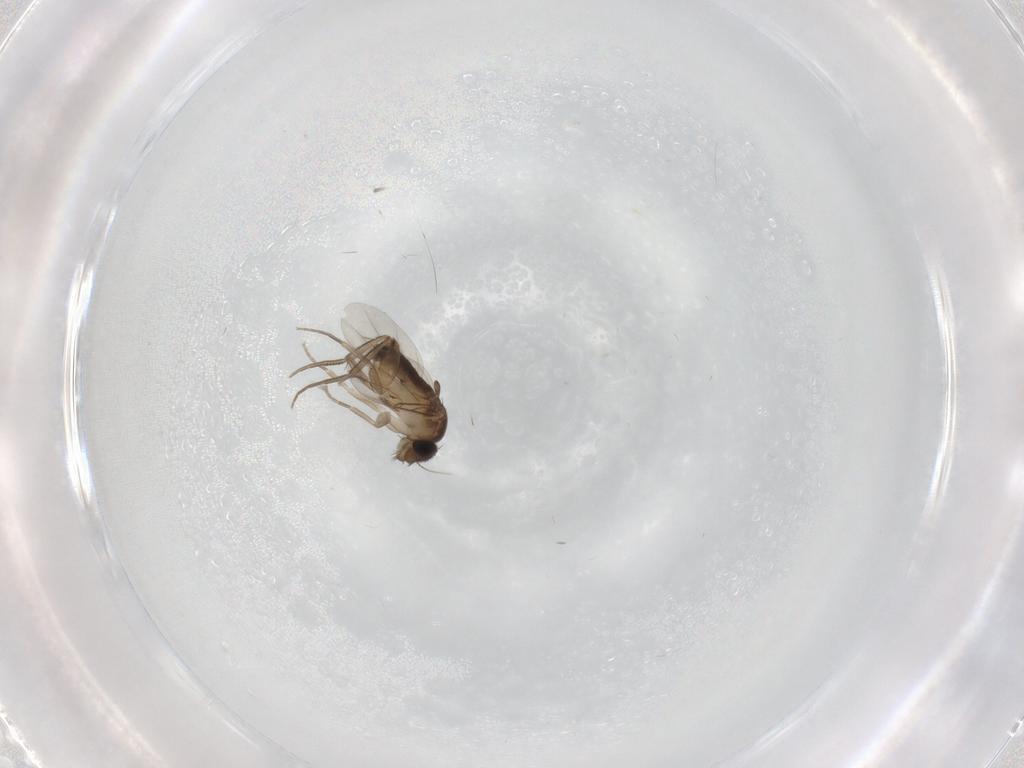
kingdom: Animalia
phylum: Arthropoda
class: Insecta
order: Diptera
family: Phoridae
